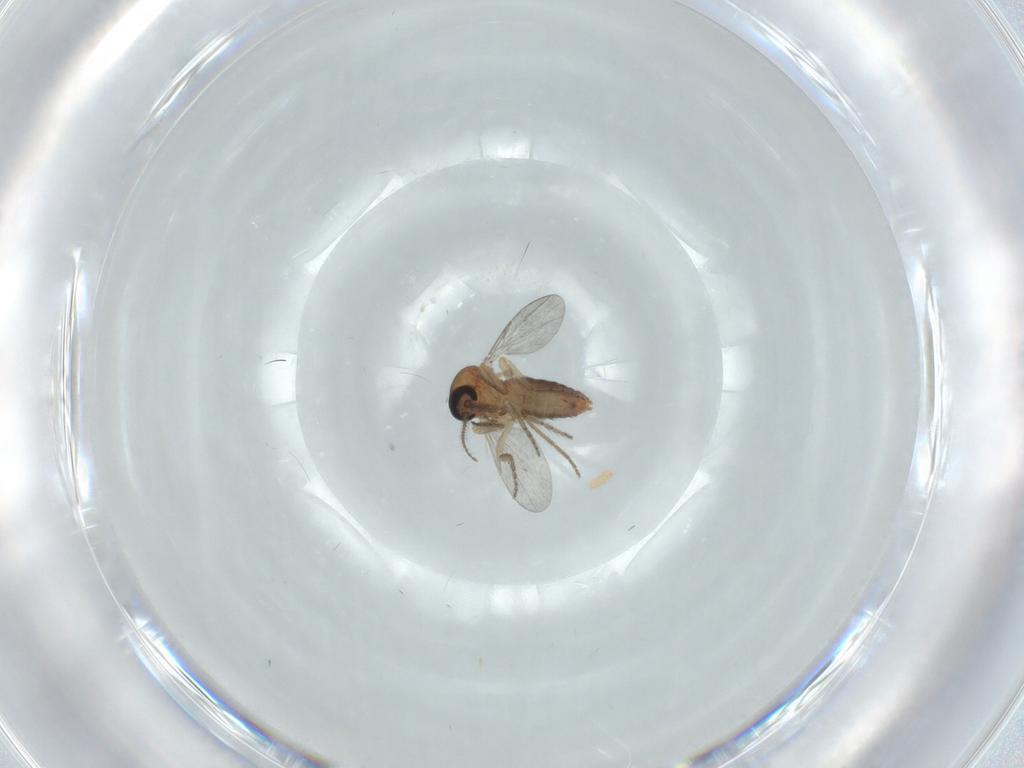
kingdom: Animalia
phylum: Arthropoda
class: Insecta
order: Diptera
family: Ceratopogonidae
